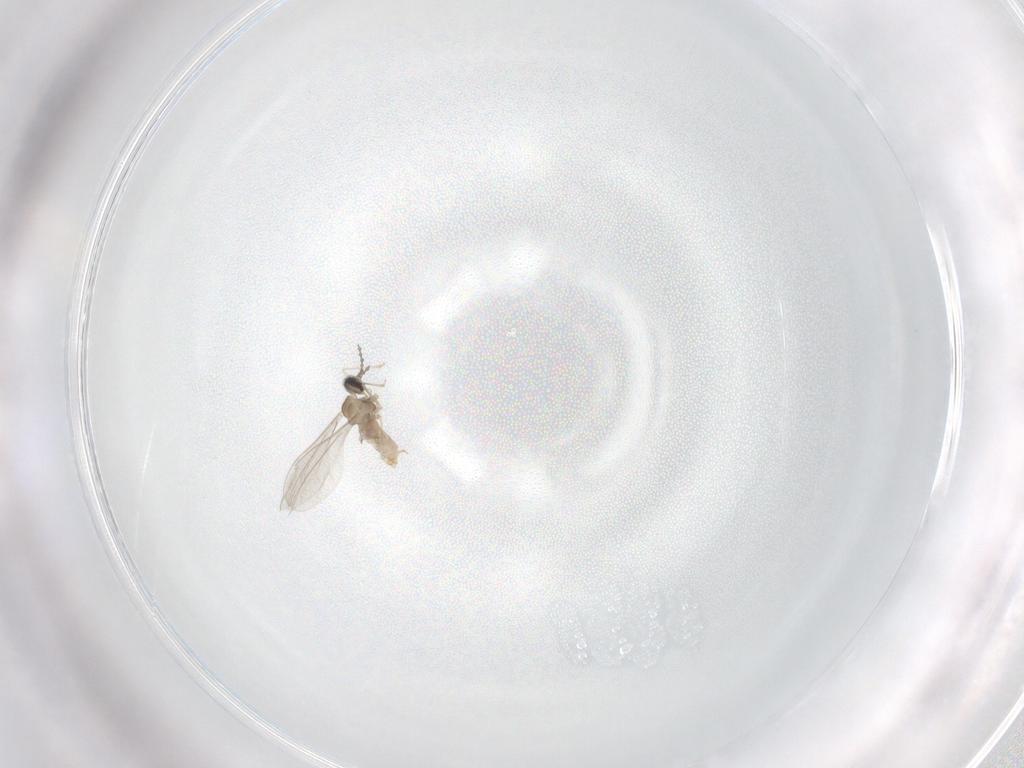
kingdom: Animalia
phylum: Arthropoda
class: Insecta
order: Diptera
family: Cecidomyiidae
